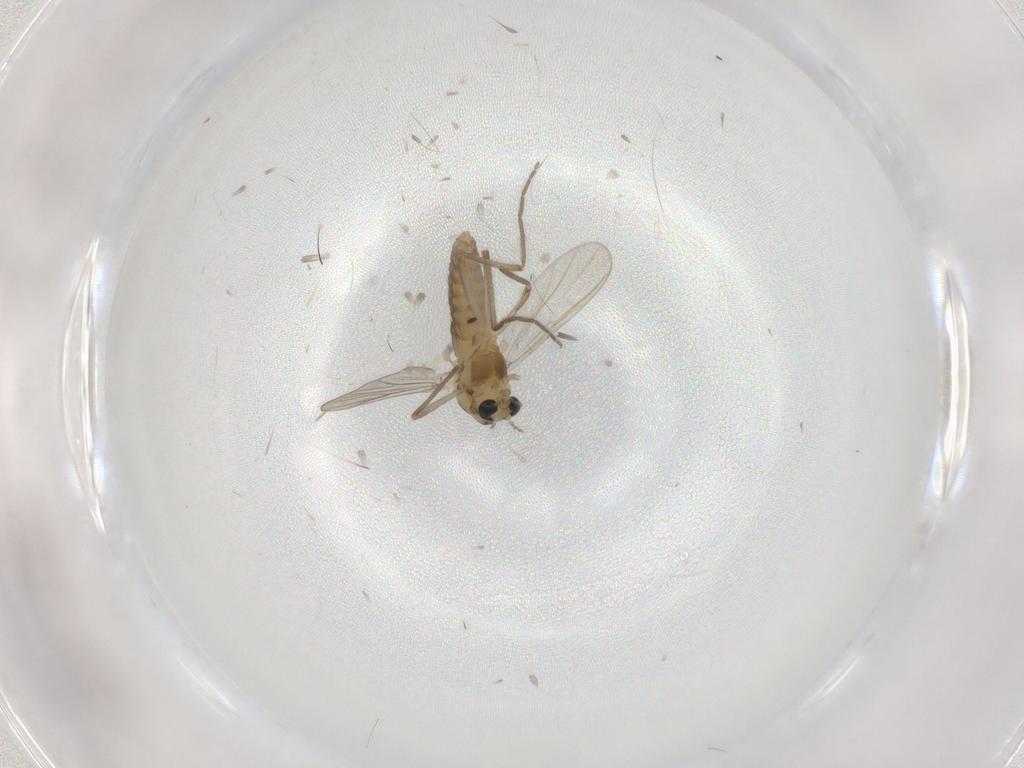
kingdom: Animalia
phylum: Arthropoda
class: Insecta
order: Diptera
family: Chironomidae
